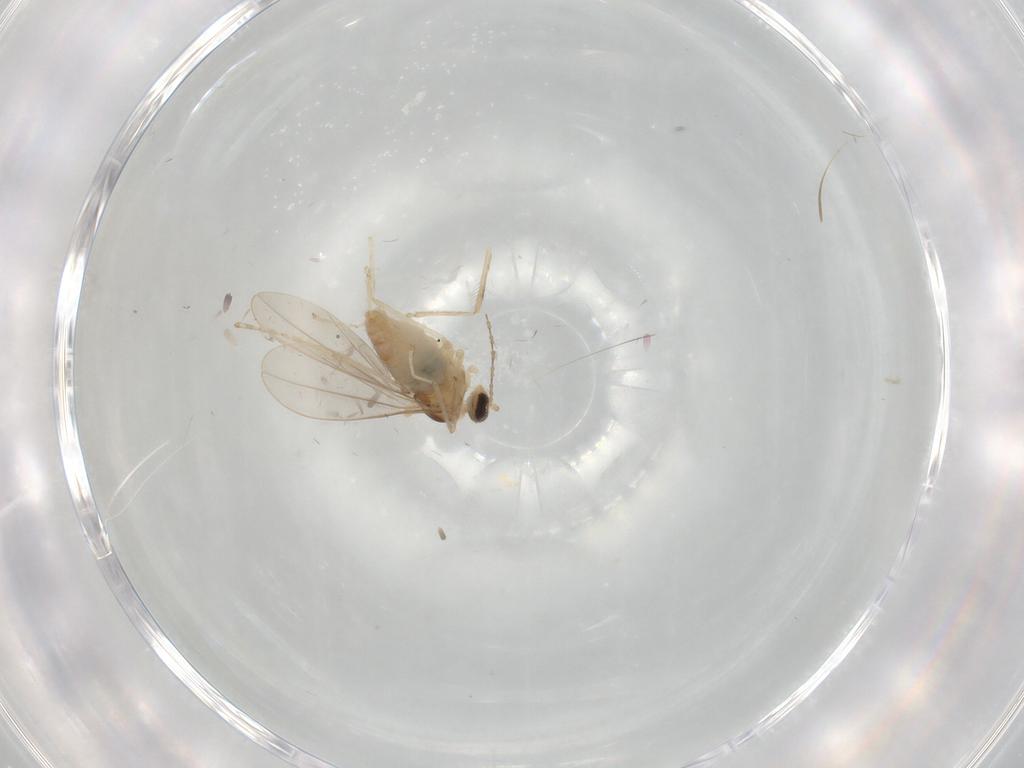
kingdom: Animalia
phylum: Arthropoda
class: Insecta
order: Diptera
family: Cecidomyiidae
